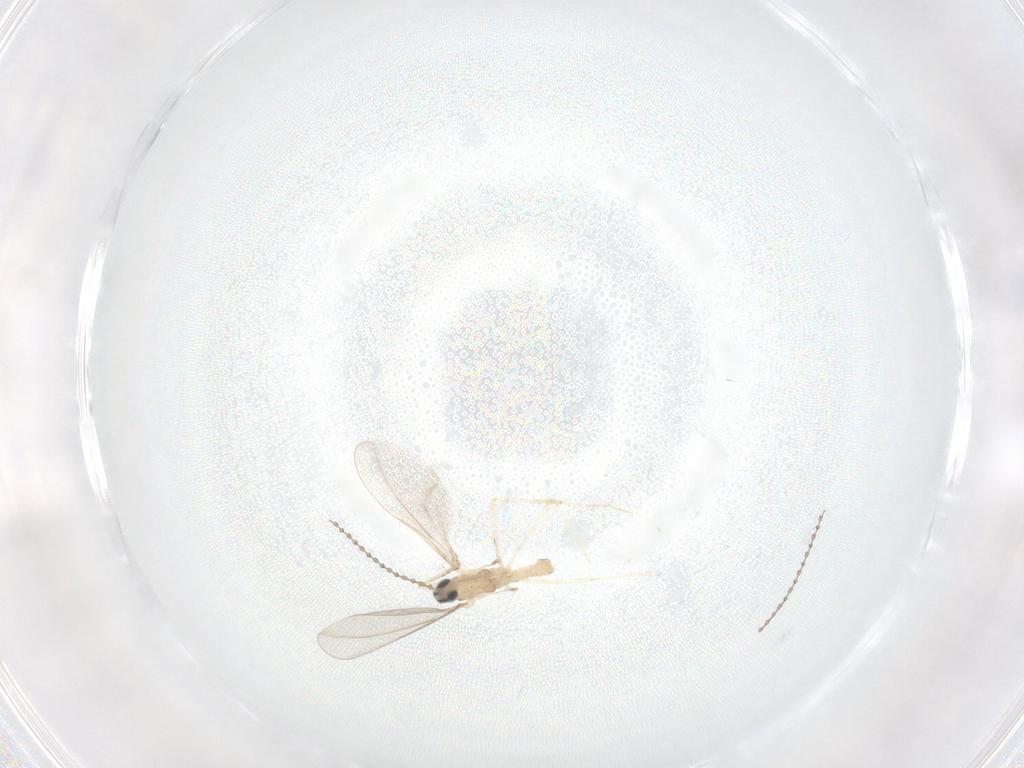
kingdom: Animalia
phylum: Arthropoda
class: Insecta
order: Diptera
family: Cecidomyiidae
